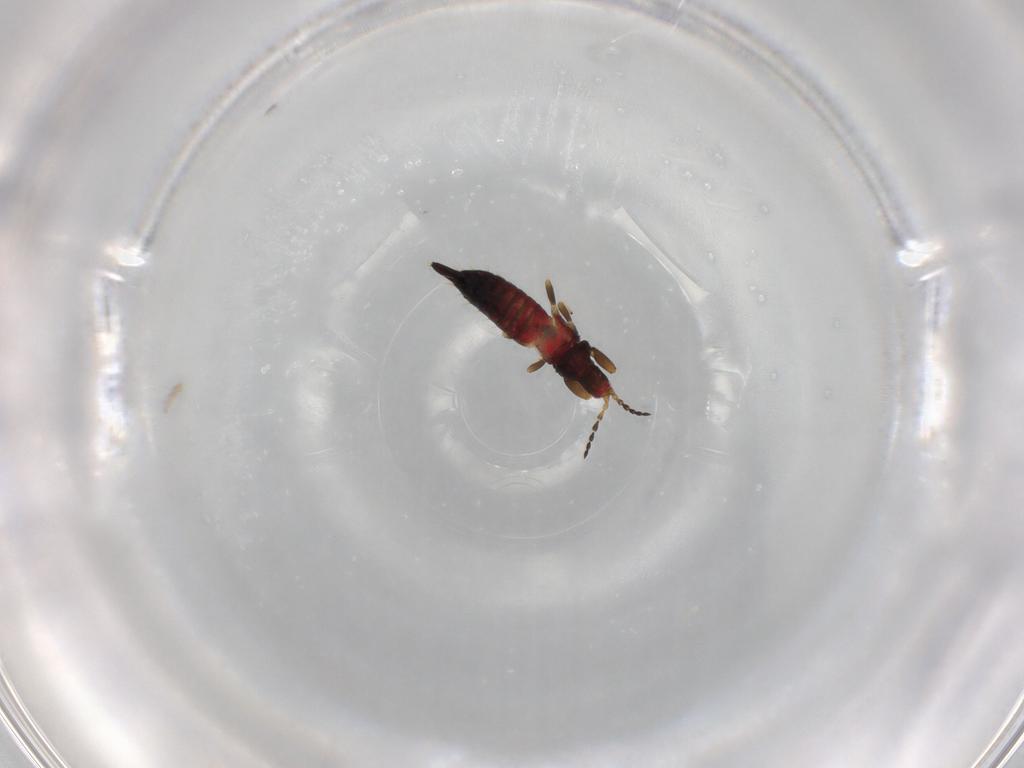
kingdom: Animalia
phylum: Arthropoda
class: Insecta
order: Thysanoptera
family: Phlaeothripidae
